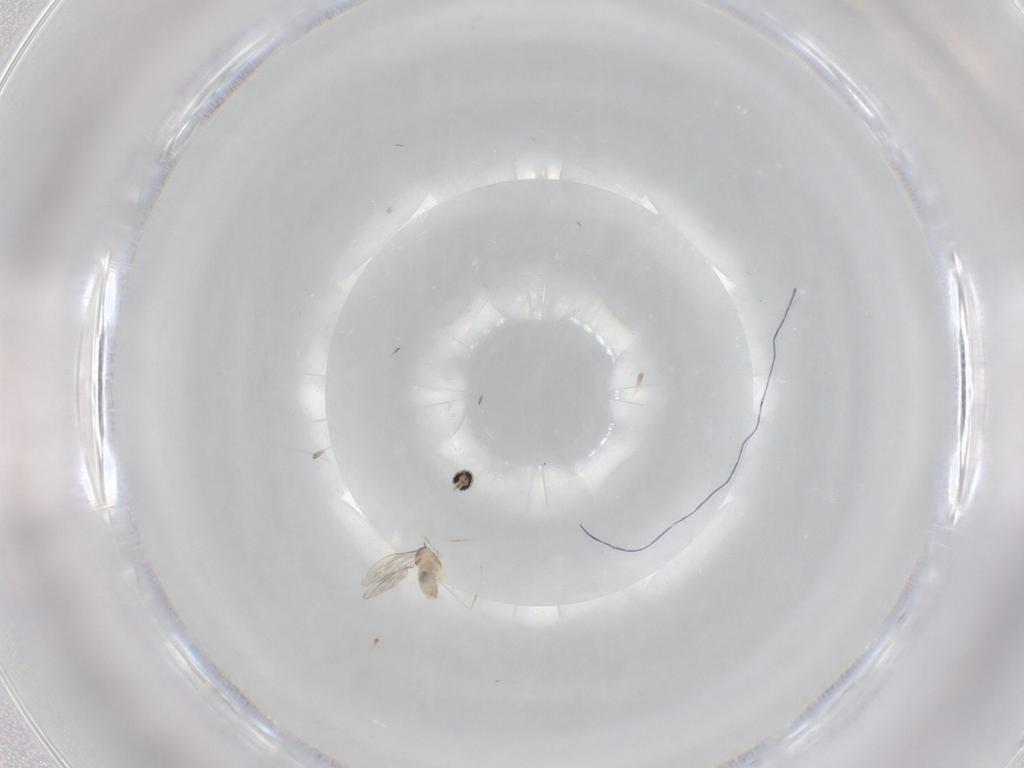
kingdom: Animalia
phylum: Arthropoda
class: Insecta
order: Diptera
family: Cecidomyiidae
